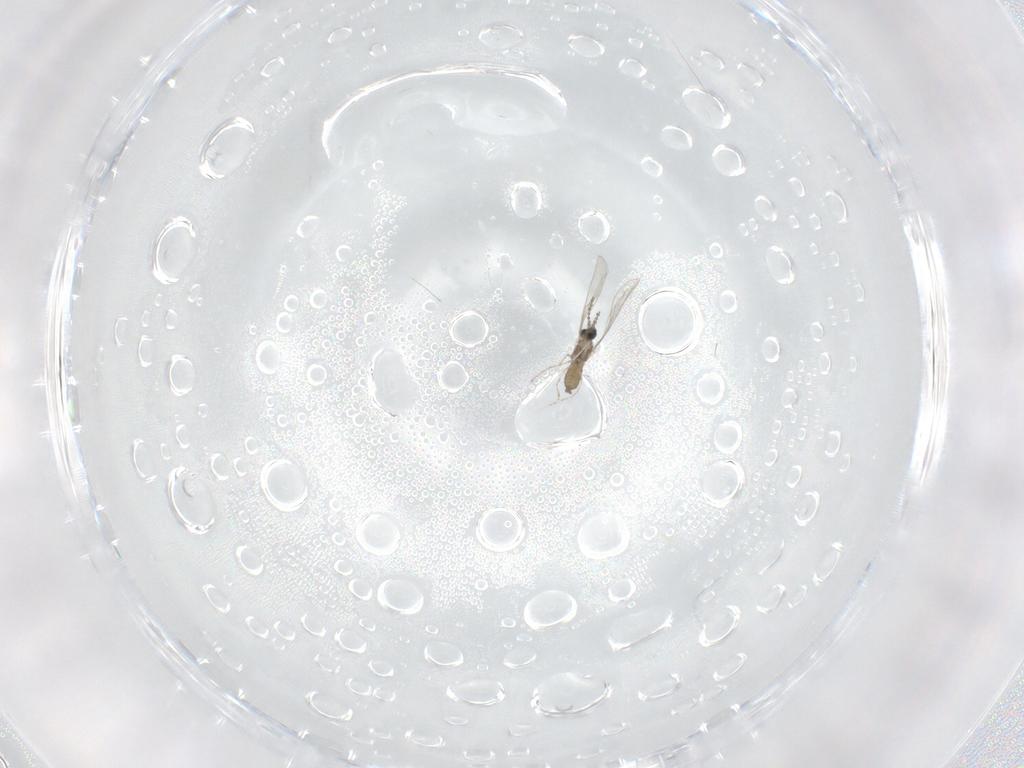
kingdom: Animalia
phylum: Arthropoda
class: Insecta
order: Diptera
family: Cecidomyiidae
